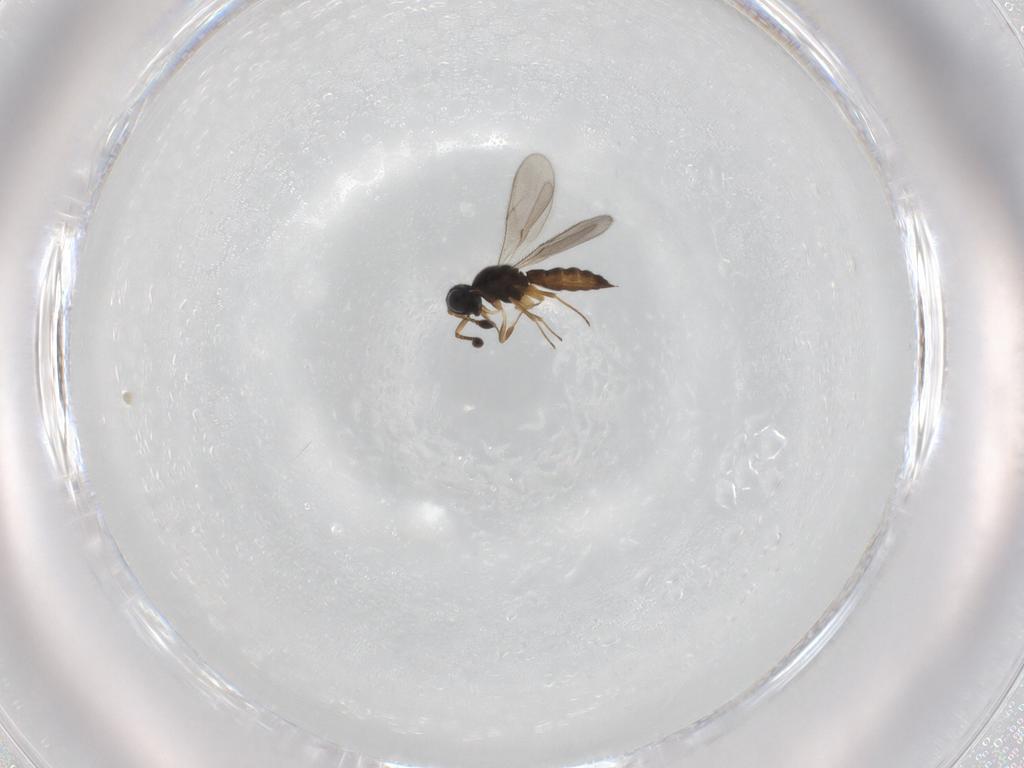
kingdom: Animalia
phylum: Arthropoda
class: Insecta
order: Hymenoptera
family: Scelionidae
